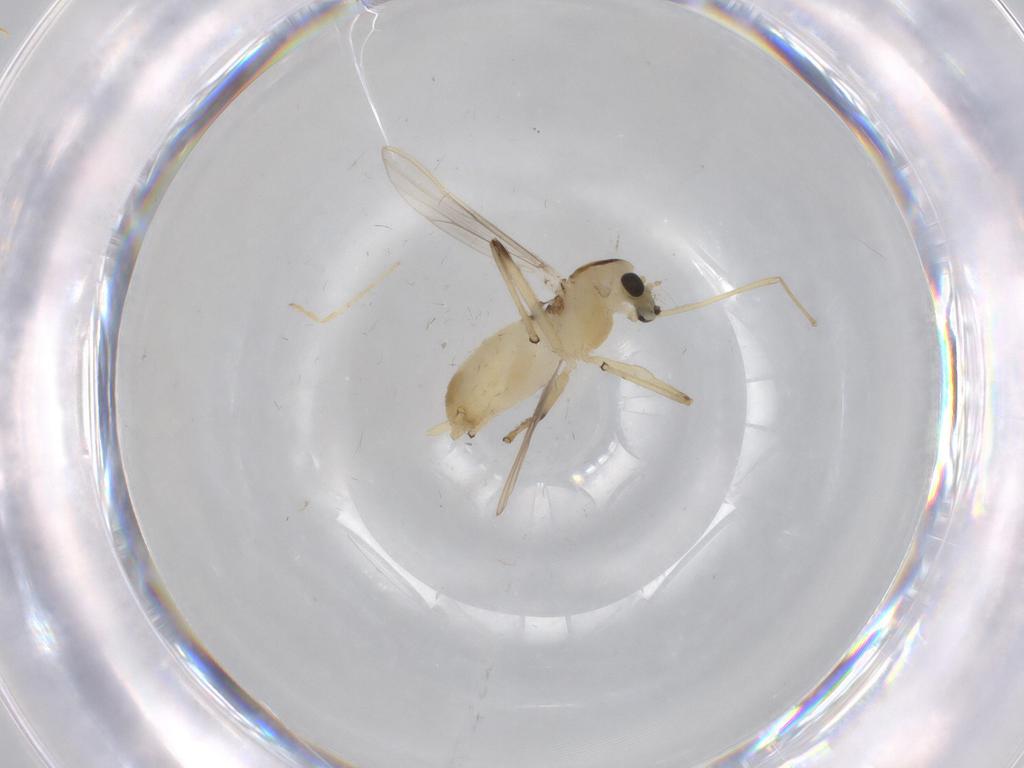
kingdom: Animalia
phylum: Arthropoda
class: Insecta
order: Diptera
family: Chironomidae
